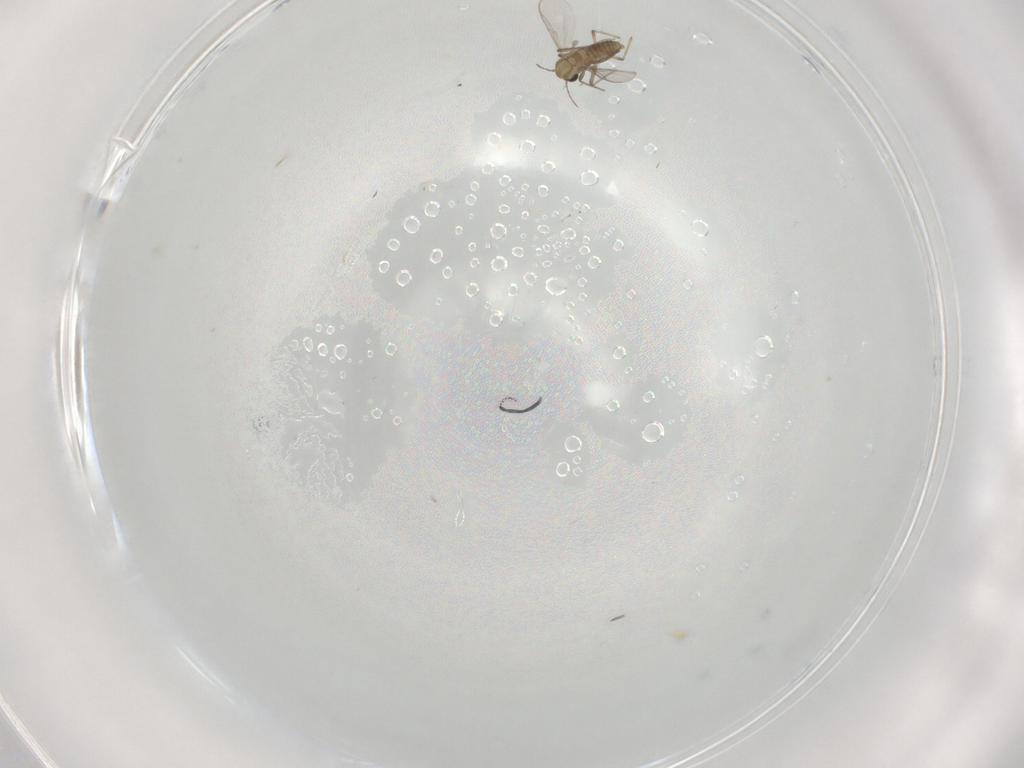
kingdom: Animalia
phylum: Arthropoda
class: Insecta
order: Diptera
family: Chironomidae
